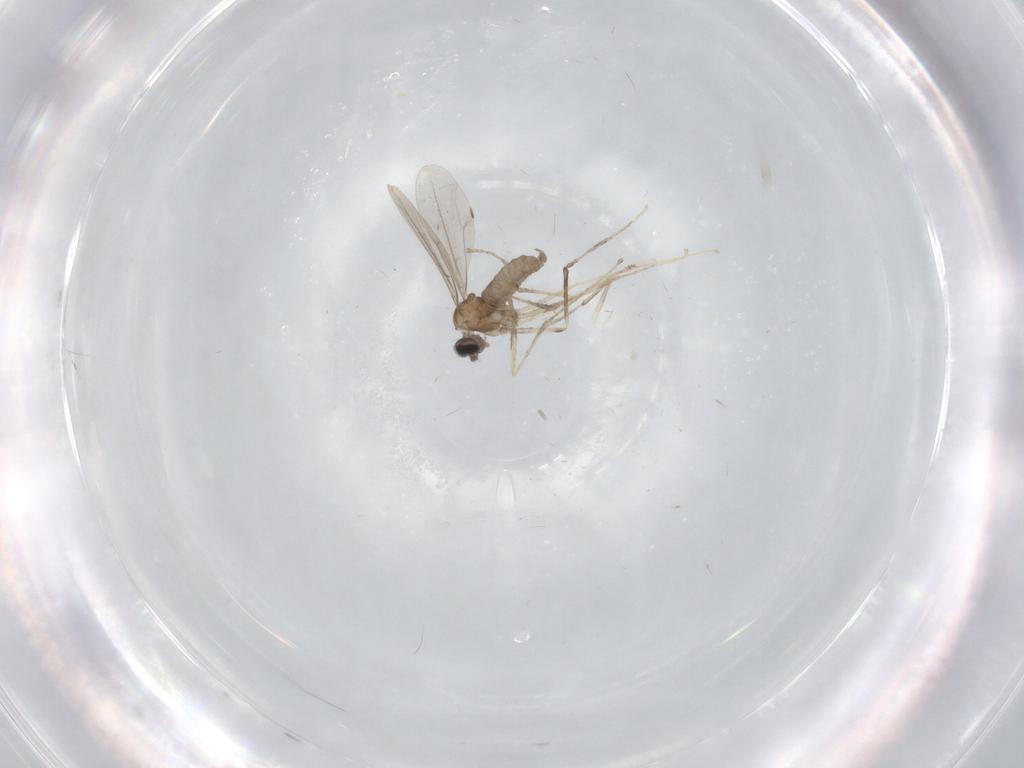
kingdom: Animalia
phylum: Arthropoda
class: Insecta
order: Diptera
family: Cecidomyiidae
